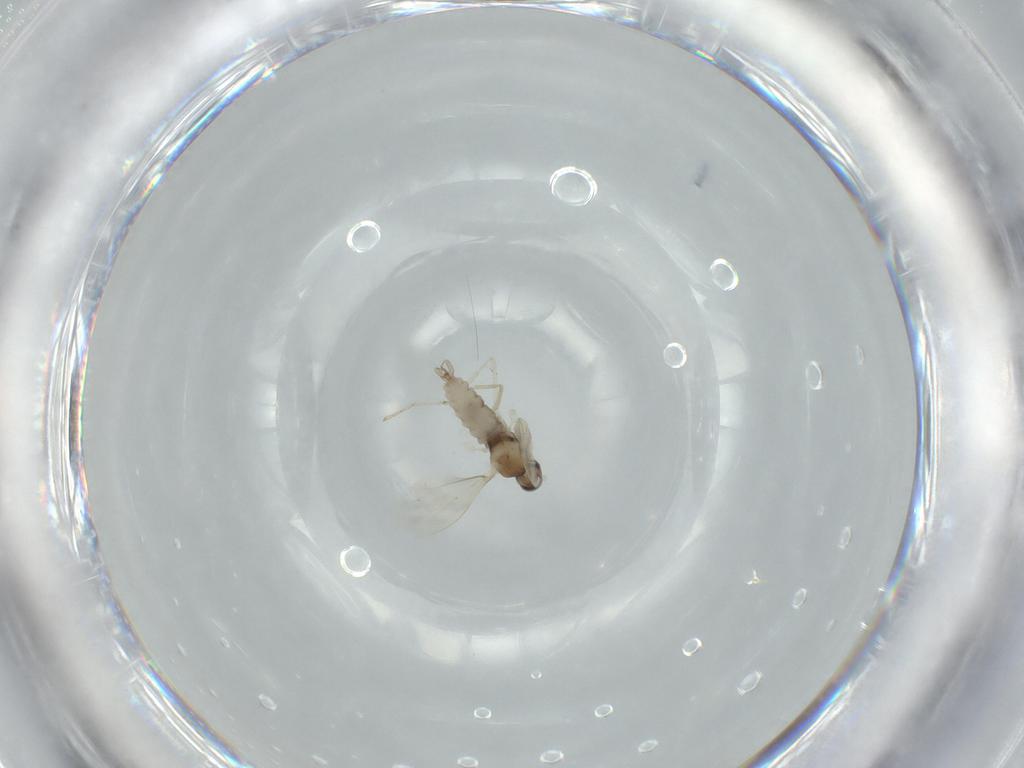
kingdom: Animalia
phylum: Arthropoda
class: Insecta
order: Diptera
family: Cecidomyiidae
